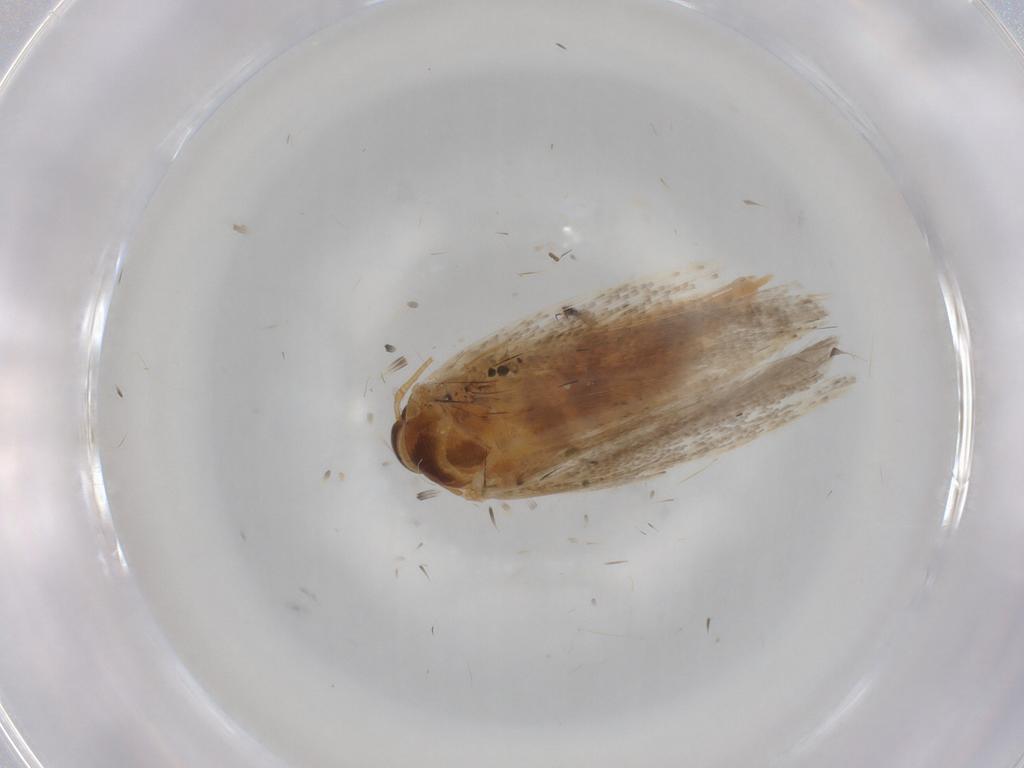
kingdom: Animalia
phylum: Arthropoda
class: Insecta
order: Lepidoptera
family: Gelechiidae
